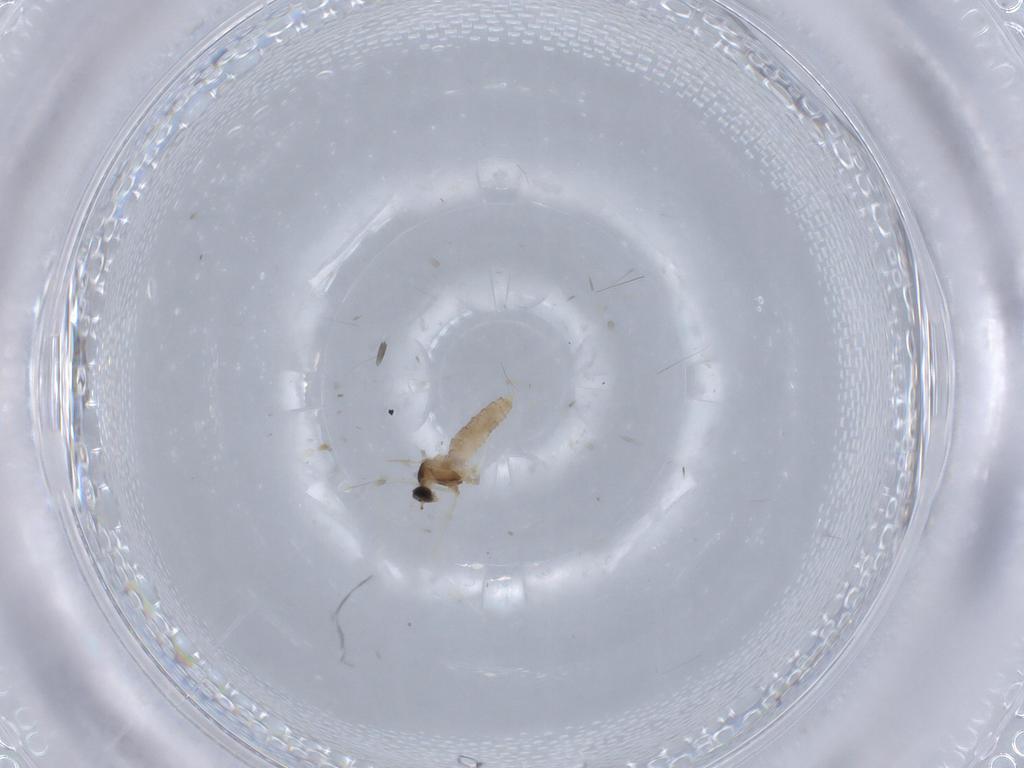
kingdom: Animalia
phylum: Arthropoda
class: Insecta
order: Diptera
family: Cecidomyiidae
